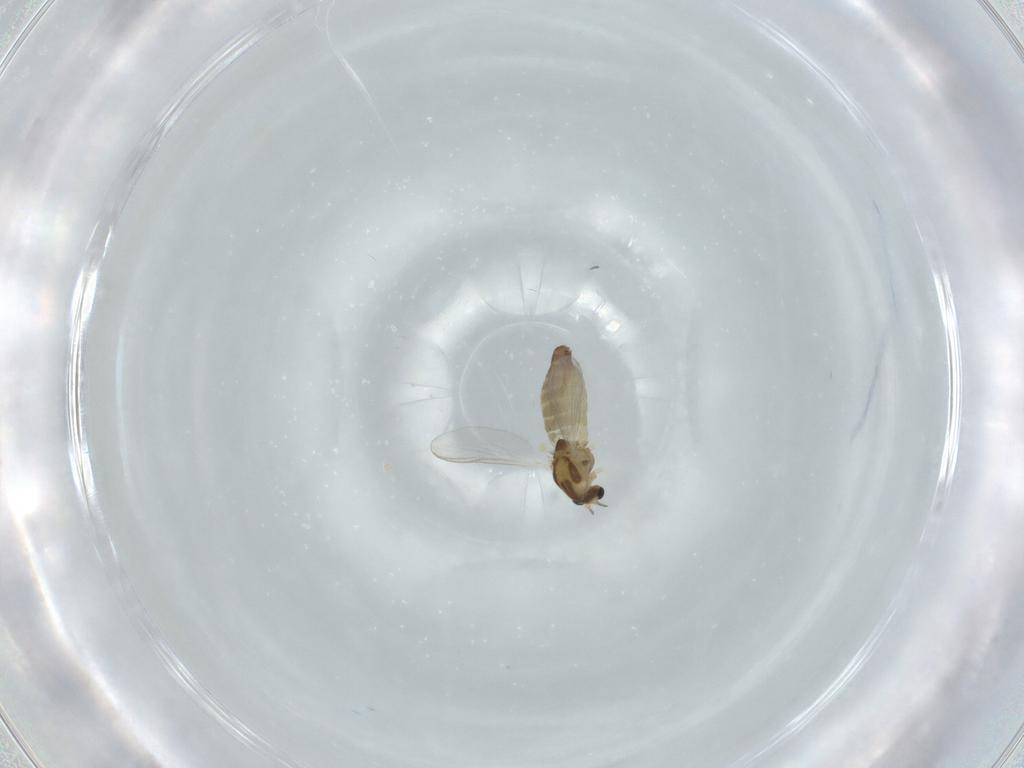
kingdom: Animalia
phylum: Arthropoda
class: Insecta
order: Diptera
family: Chironomidae
